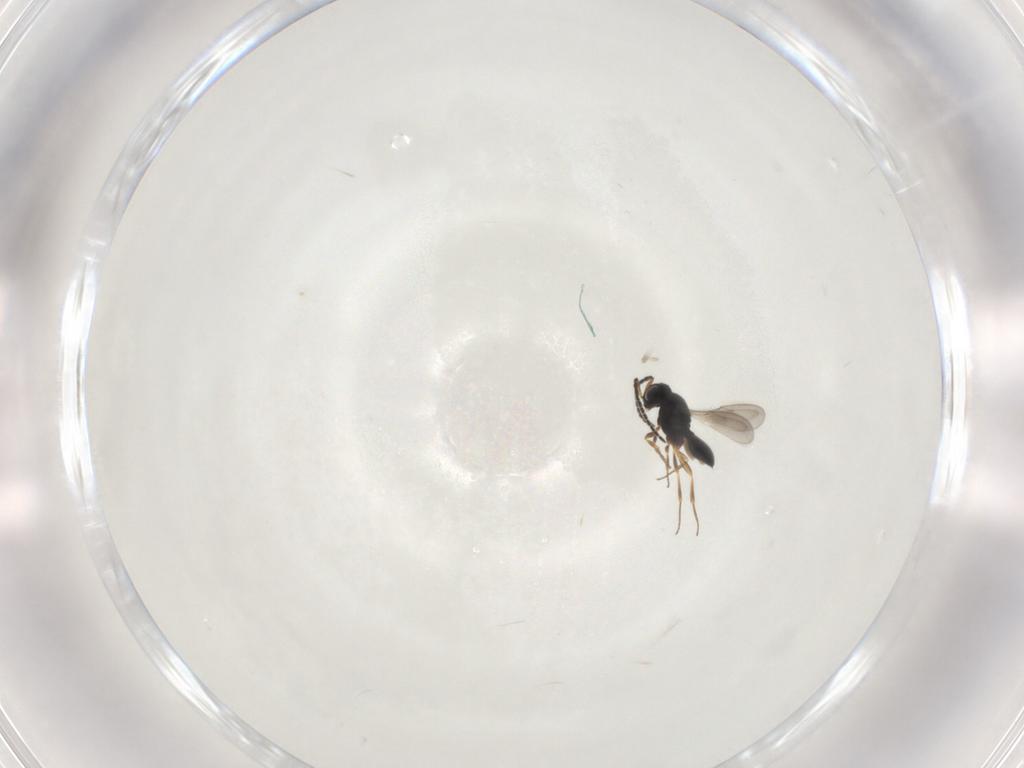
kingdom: Animalia
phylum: Arthropoda
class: Insecta
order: Hymenoptera
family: Scelionidae
